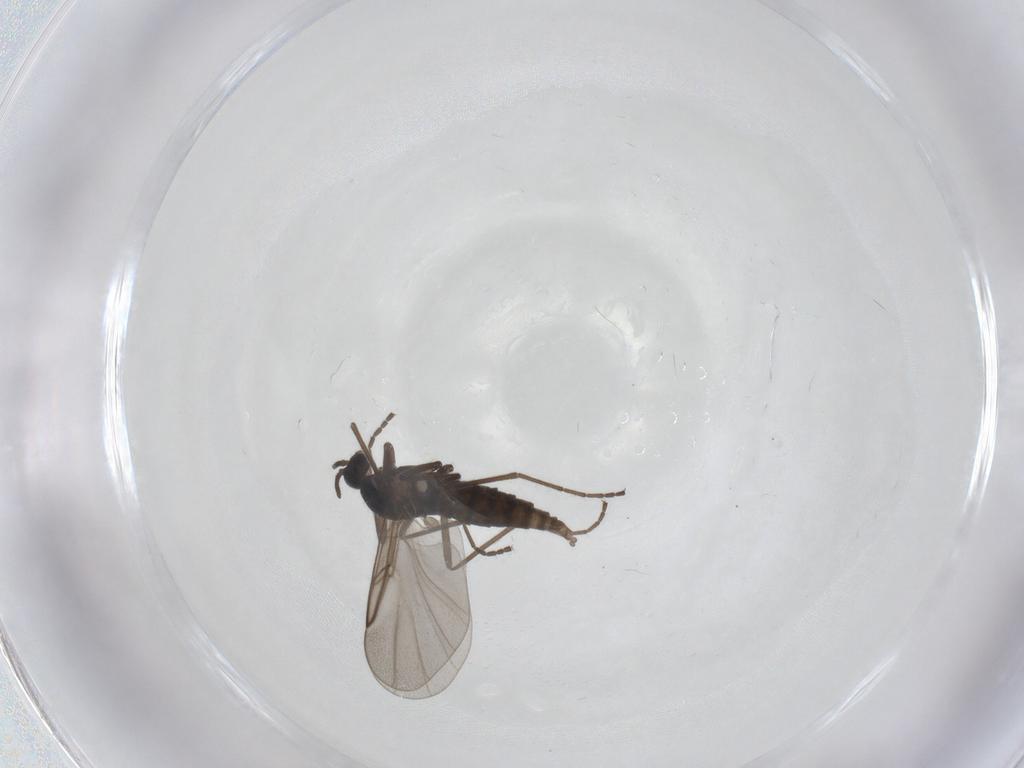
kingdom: Animalia
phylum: Arthropoda
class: Insecta
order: Diptera
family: Cecidomyiidae
